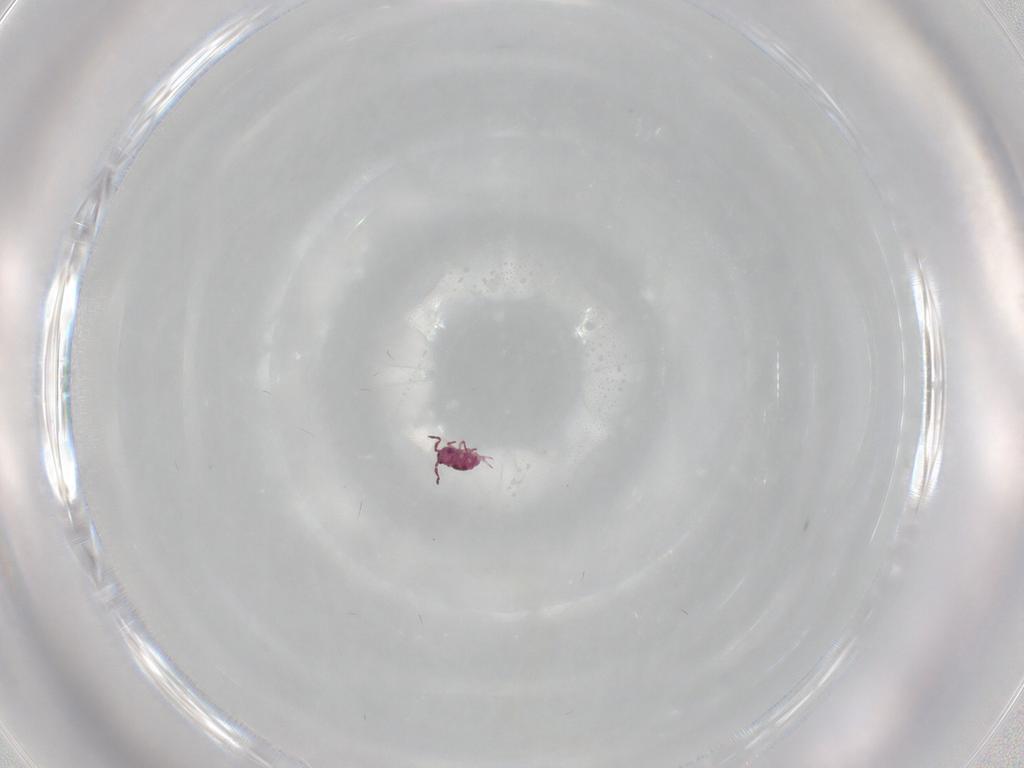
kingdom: Animalia
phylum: Arthropoda
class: Collembola
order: Symphypleona
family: Sminthurididae
